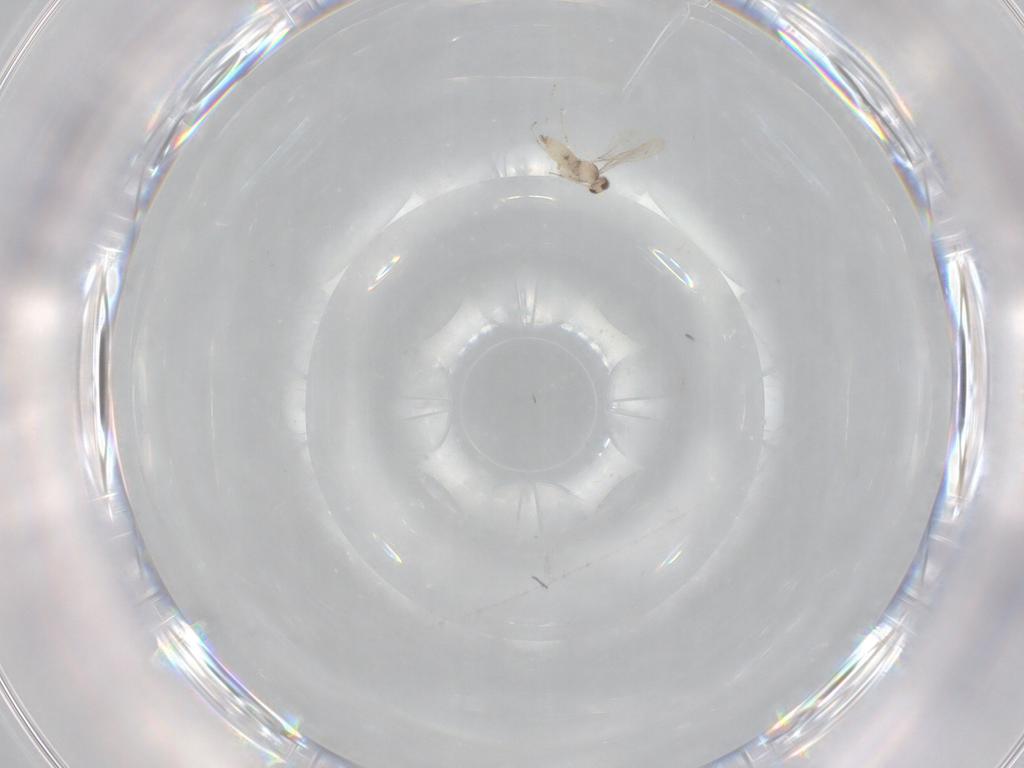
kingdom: Animalia
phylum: Arthropoda
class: Insecta
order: Diptera
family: Cecidomyiidae
